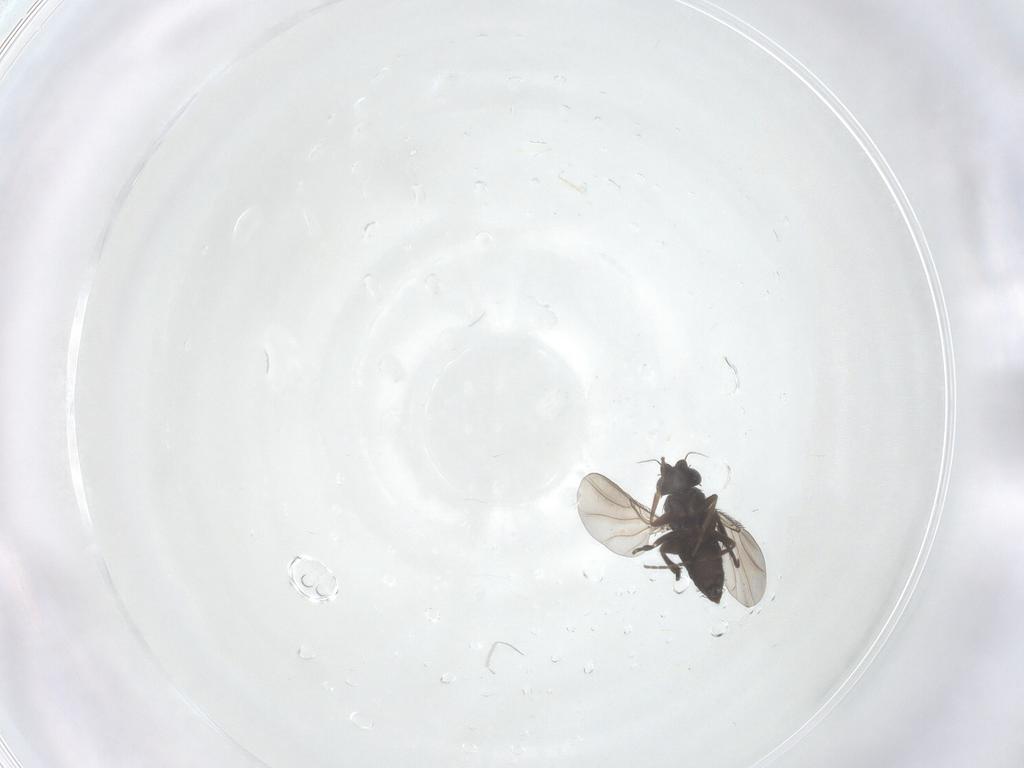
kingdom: Animalia
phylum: Arthropoda
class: Insecta
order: Diptera
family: Phoridae
